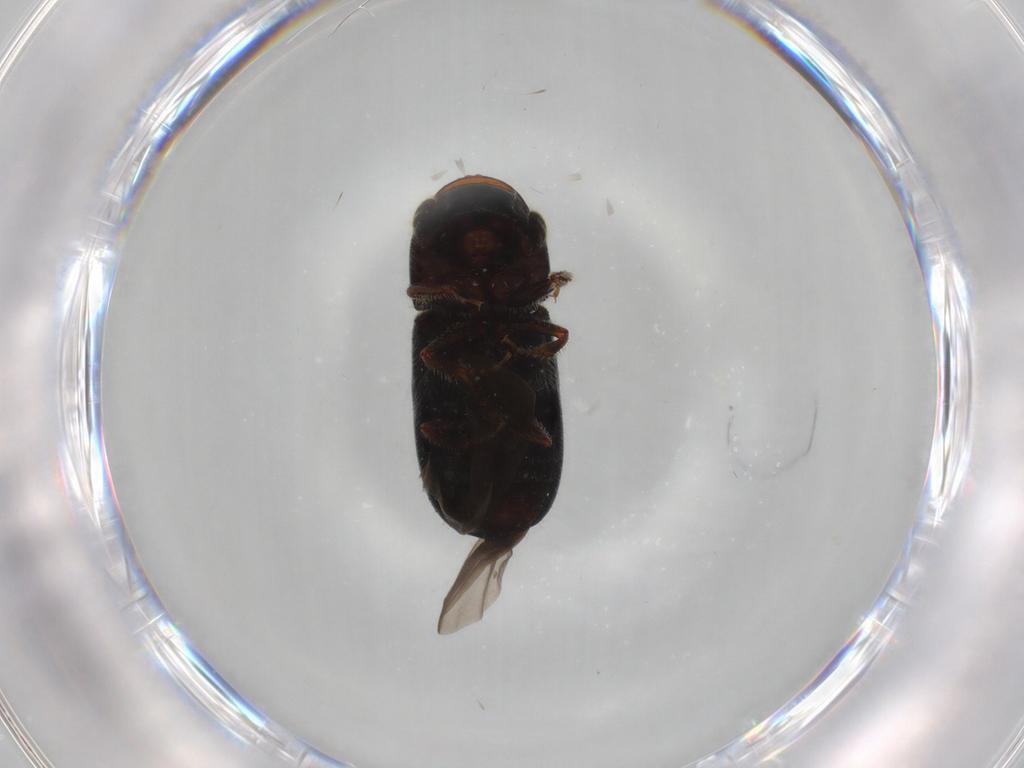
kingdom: Animalia
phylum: Arthropoda
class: Insecta
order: Coleoptera
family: Curculionidae
